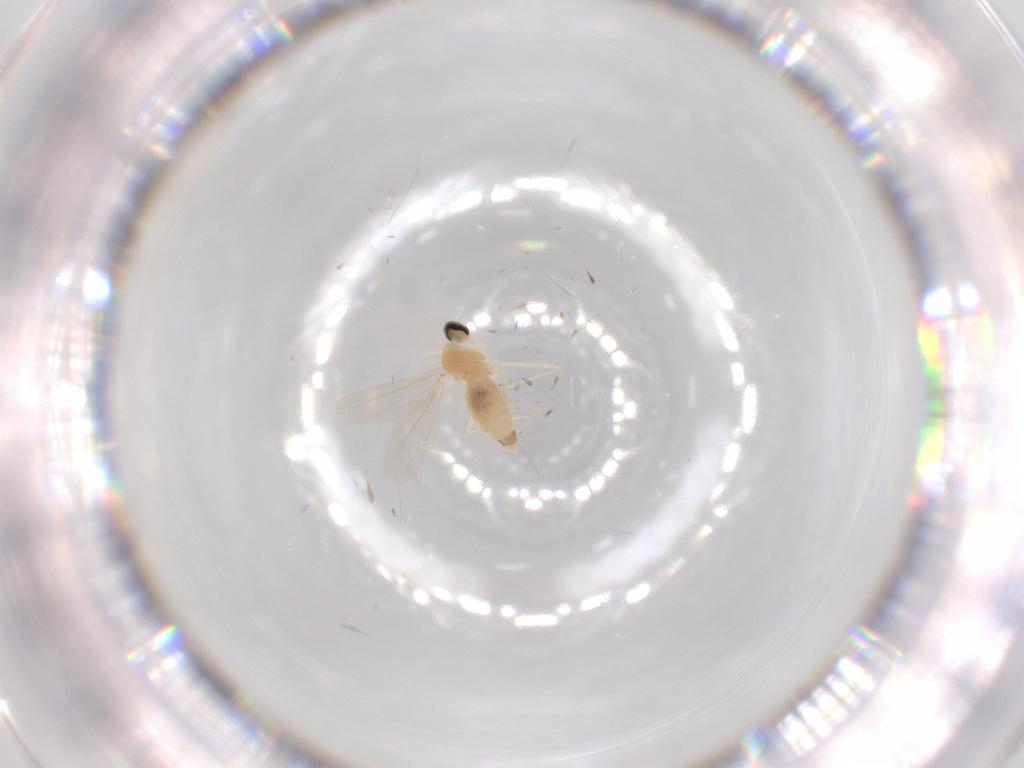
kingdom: Animalia
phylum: Arthropoda
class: Insecta
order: Diptera
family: Cecidomyiidae
